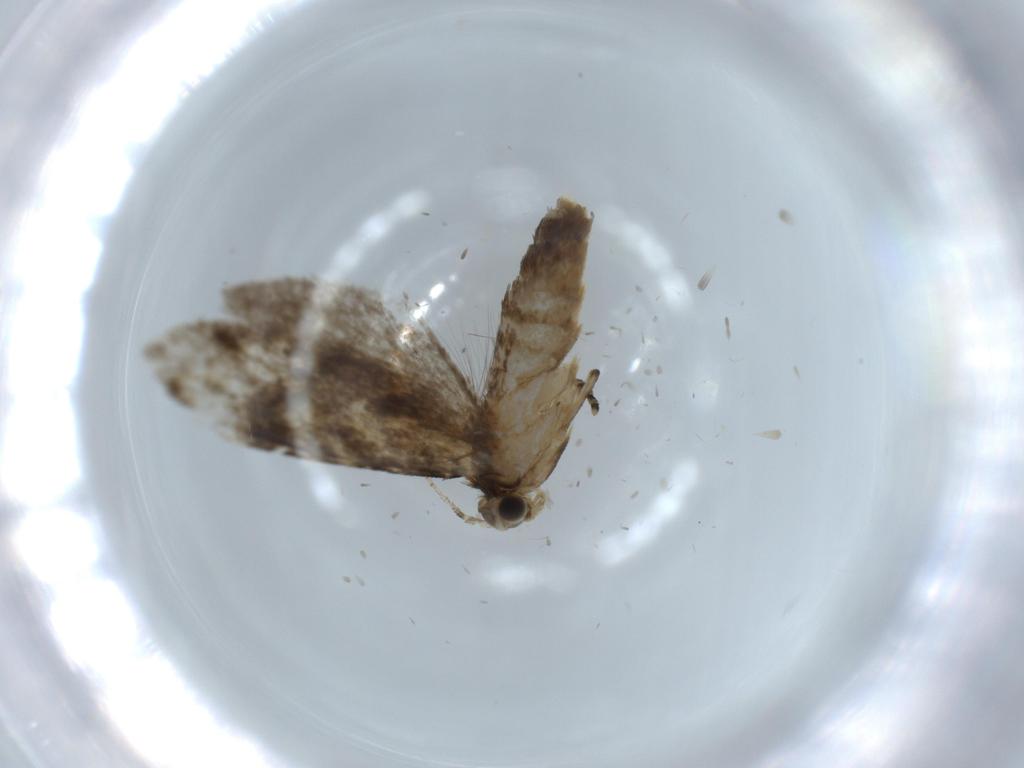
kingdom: Animalia
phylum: Arthropoda
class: Insecta
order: Lepidoptera
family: Tineidae
